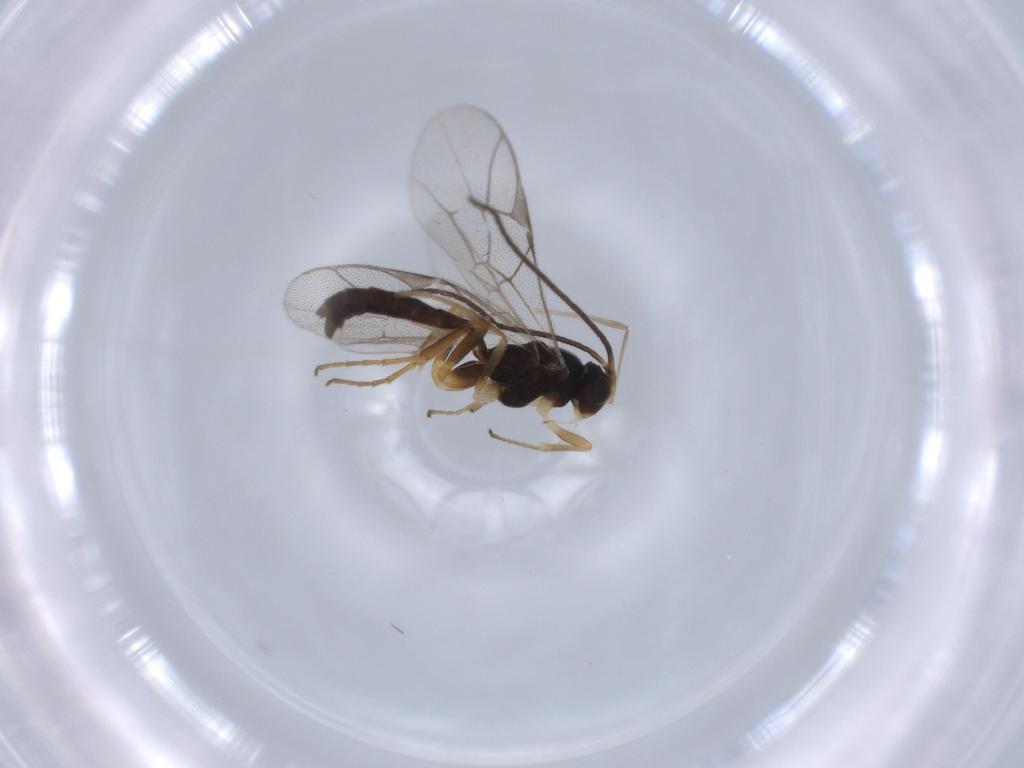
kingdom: Animalia
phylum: Arthropoda
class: Insecta
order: Hymenoptera
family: Ichneumonidae
